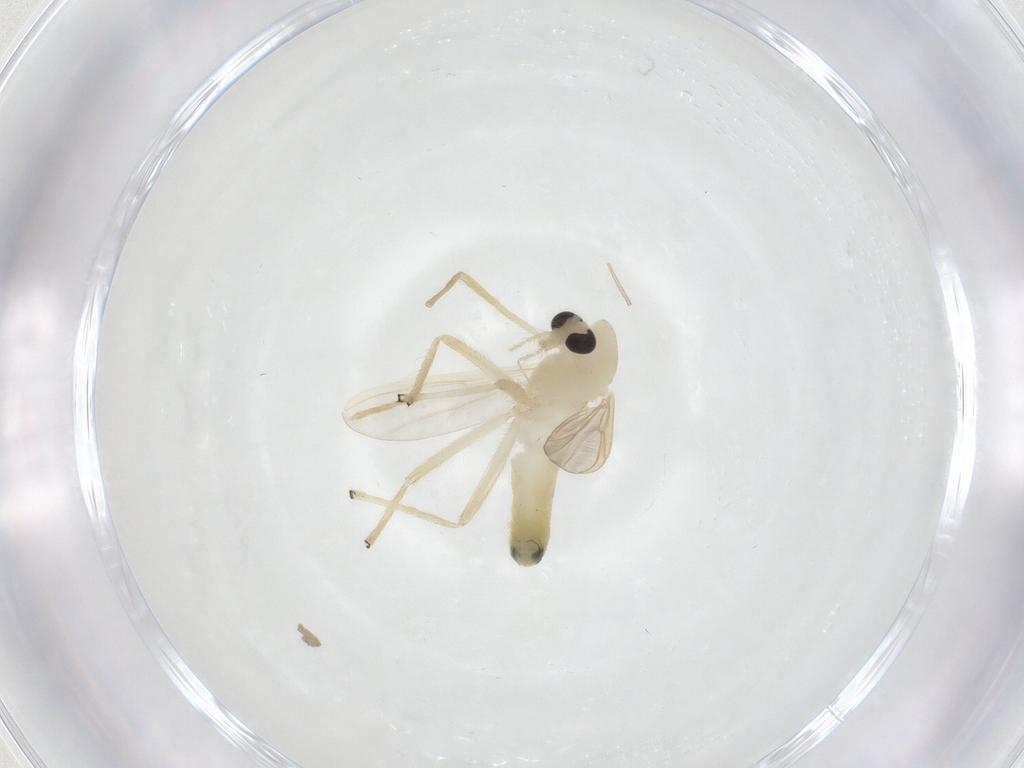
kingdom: Animalia
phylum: Arthropoda
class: Insecta
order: Diptera
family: Chironomidae
